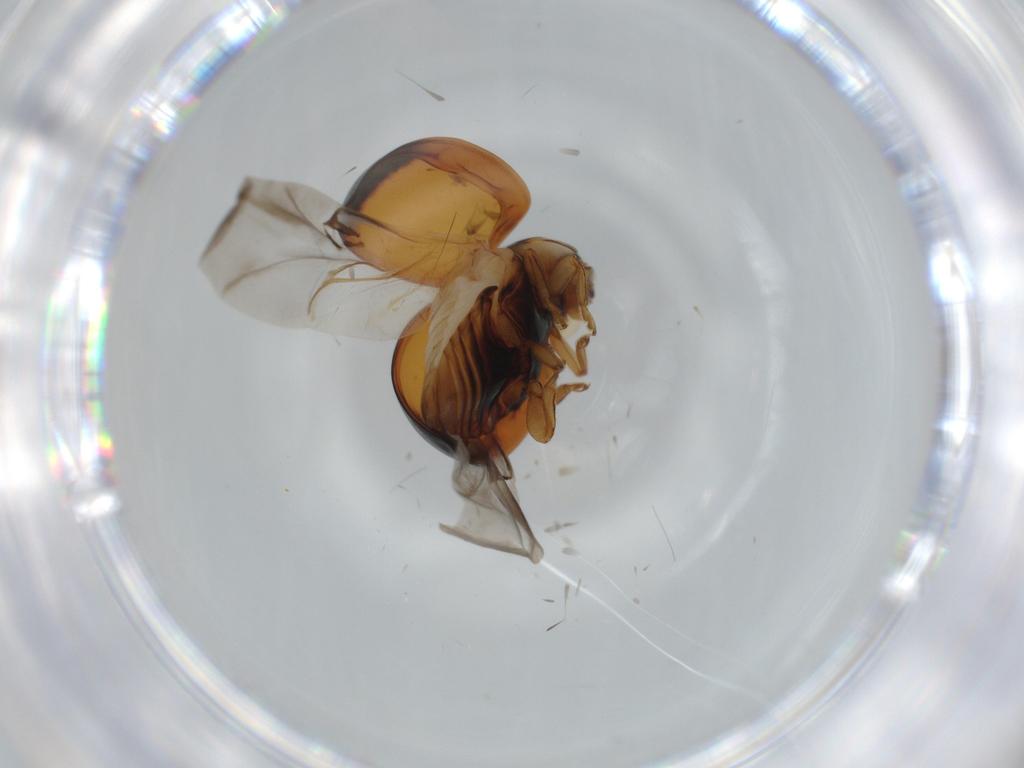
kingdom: Animalia
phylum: Arthropoda
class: Insecta
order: Coleoptera
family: Coccinellidae
